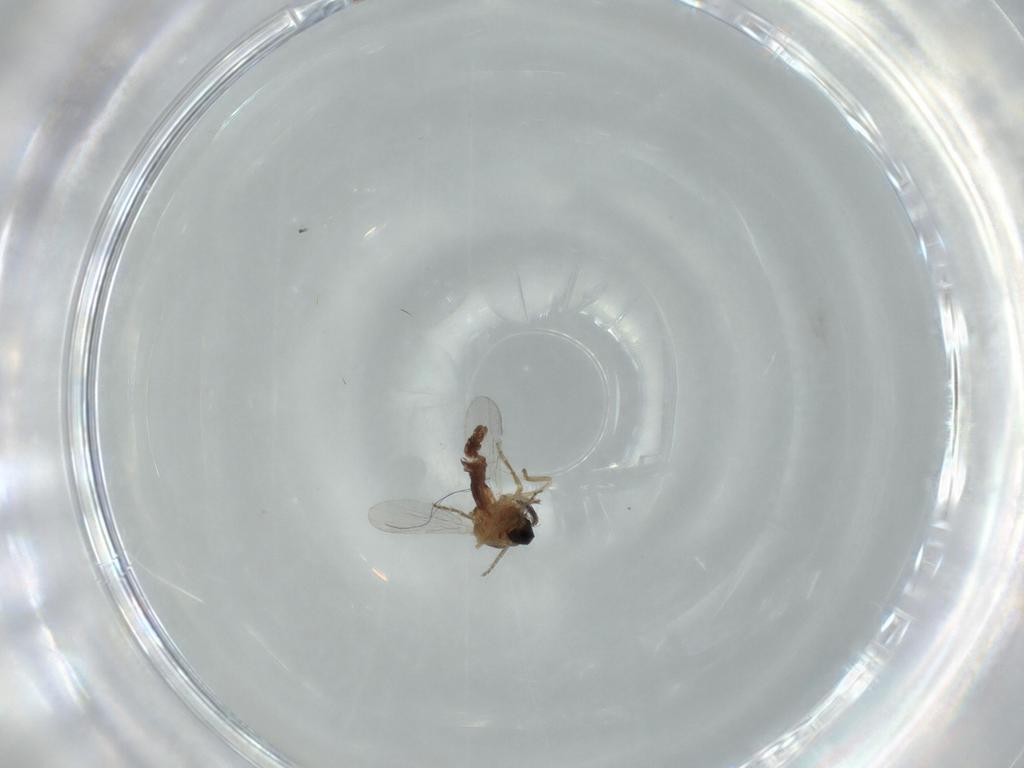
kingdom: Animalia
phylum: Arthropoda
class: Insecta
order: Diptera
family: Ceratopogonidae
